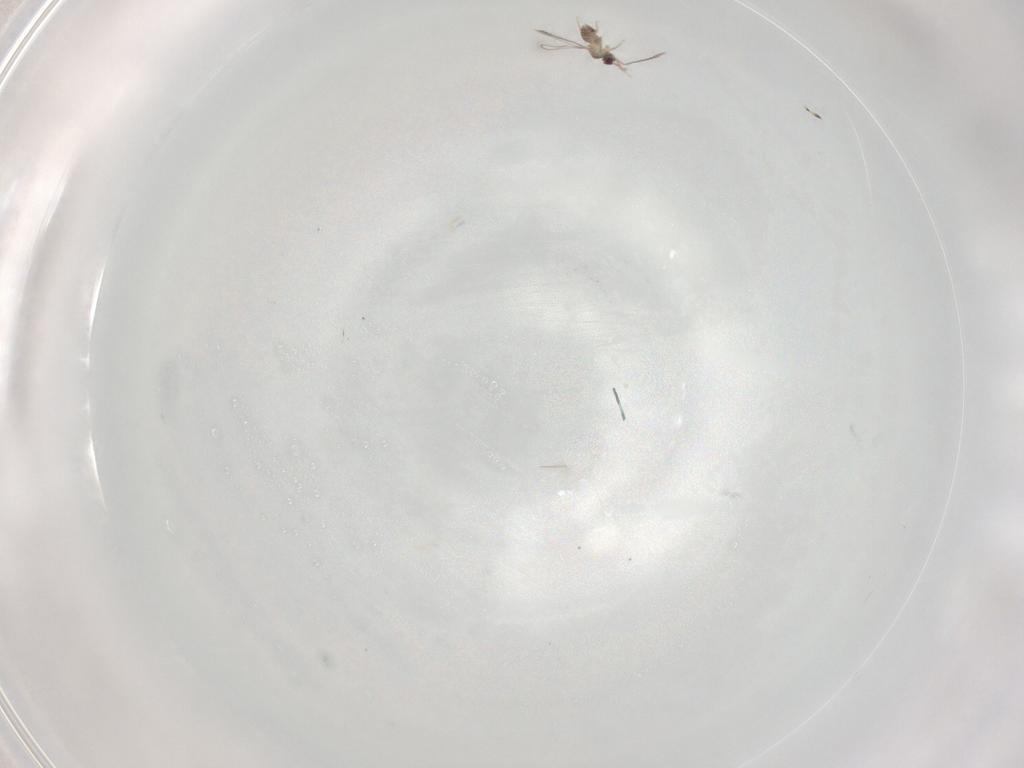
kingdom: Animalia
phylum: Arthropoda
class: Insecta
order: Hymenoptera
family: Mymaridae
